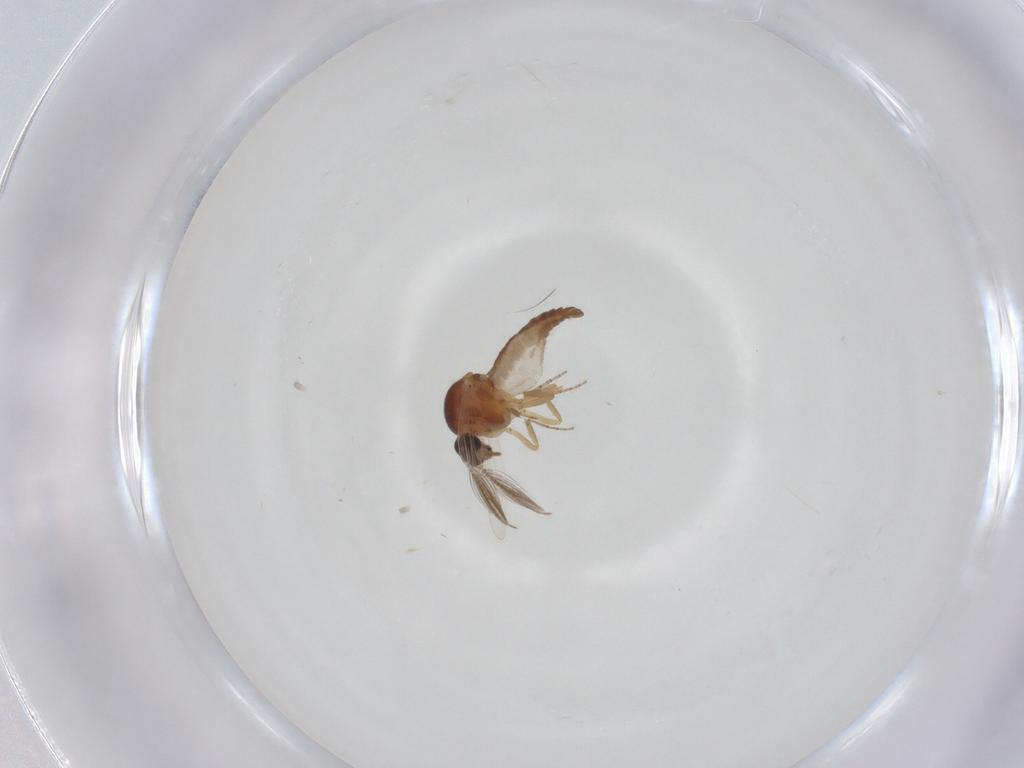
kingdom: Animalia
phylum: Arthropoda
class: Insecta
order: Diptera
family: Ceratopogonidae
